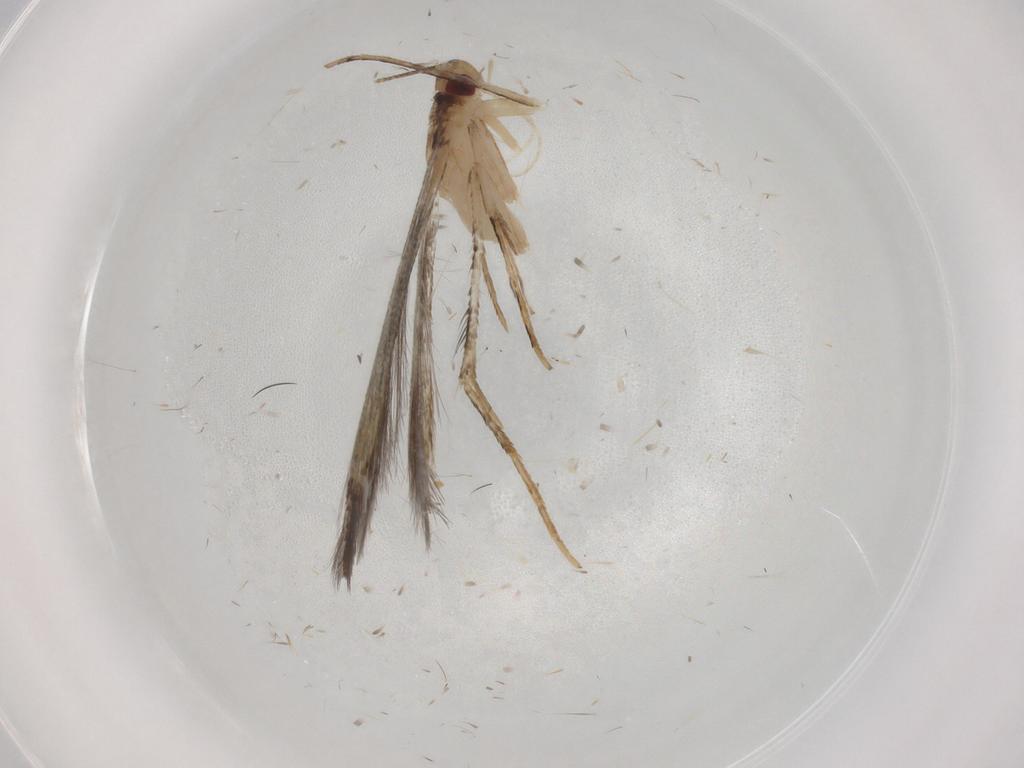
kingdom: Animalia
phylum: Arthropoda
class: Insecta
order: Lepidoptera
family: Cosmopterigidae
